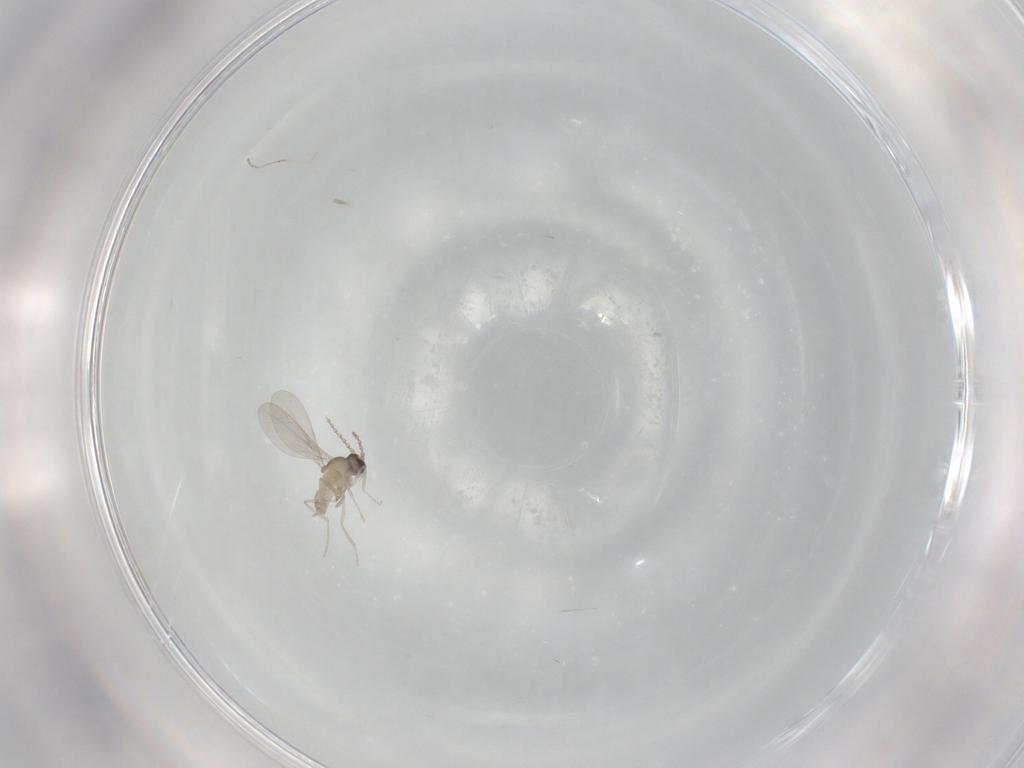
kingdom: Animalia
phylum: Arthropoda
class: Insecta
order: Diptera
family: Cecidomyiidae
